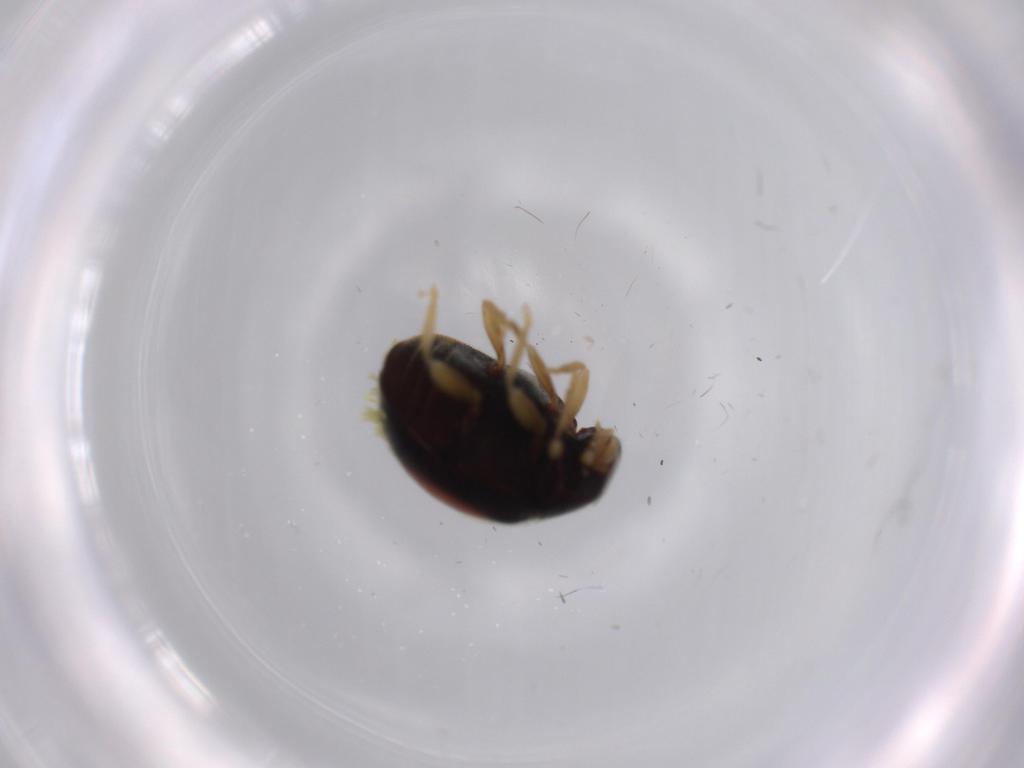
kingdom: Animalia
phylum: Arthropoda
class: Insecta
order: Coleoptera
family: Coccinellidae
